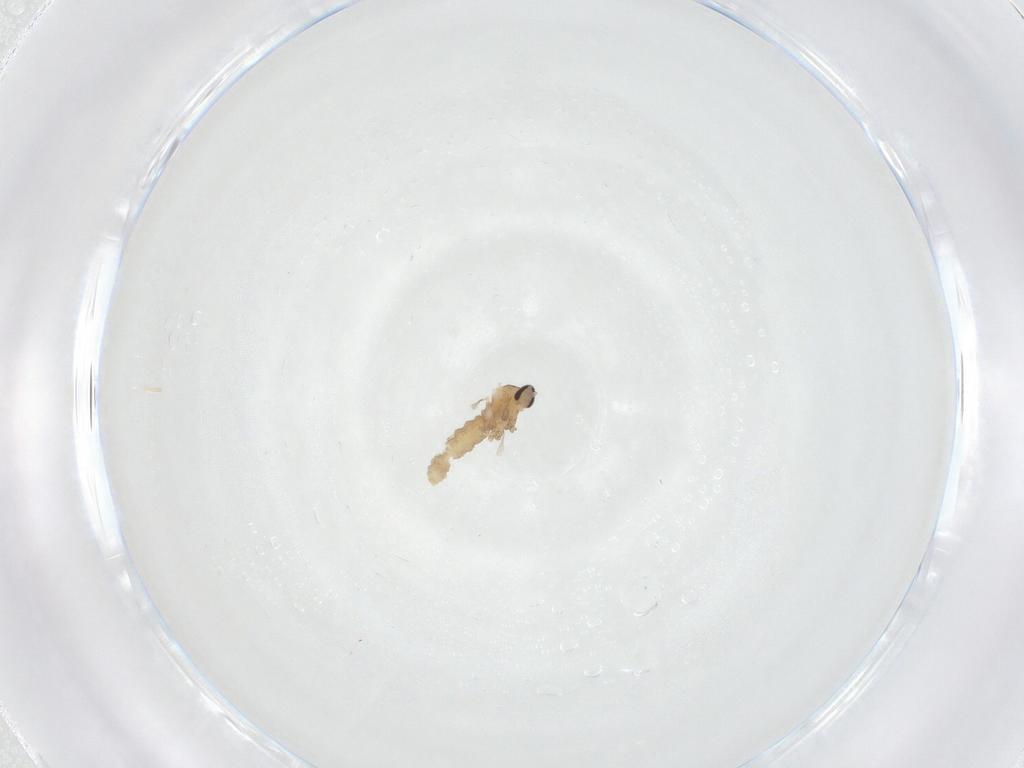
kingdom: Animalia
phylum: Arthropoda
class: Insecta
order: Diptera
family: Cecidomyiidae
